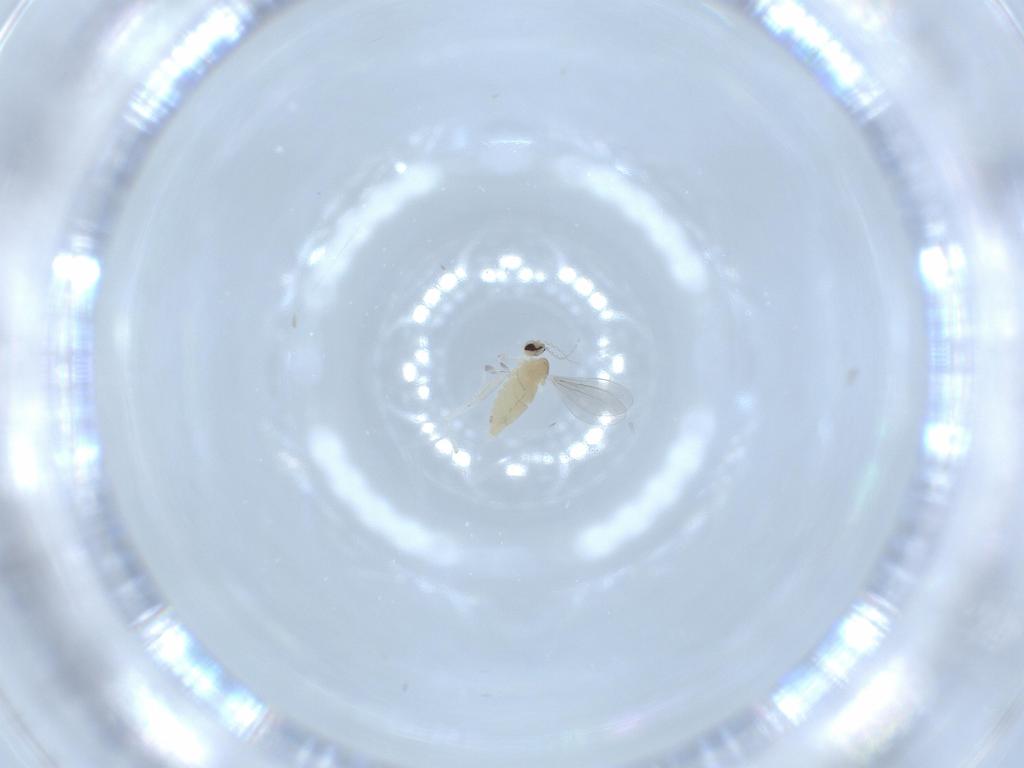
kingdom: Animalia
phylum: Arthropoda
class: Insecta
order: Diptera
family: Cecidomyiidae
